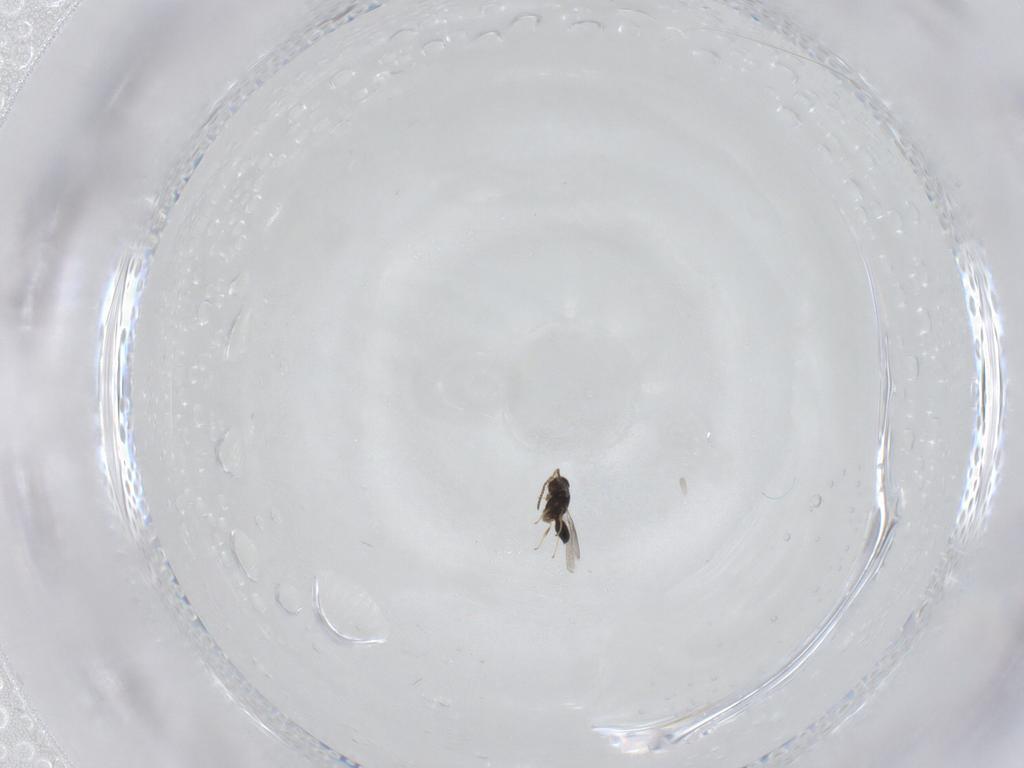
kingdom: Animalia
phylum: Arthropoda
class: Insecta
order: Hymenoptera
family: Scelionidae
